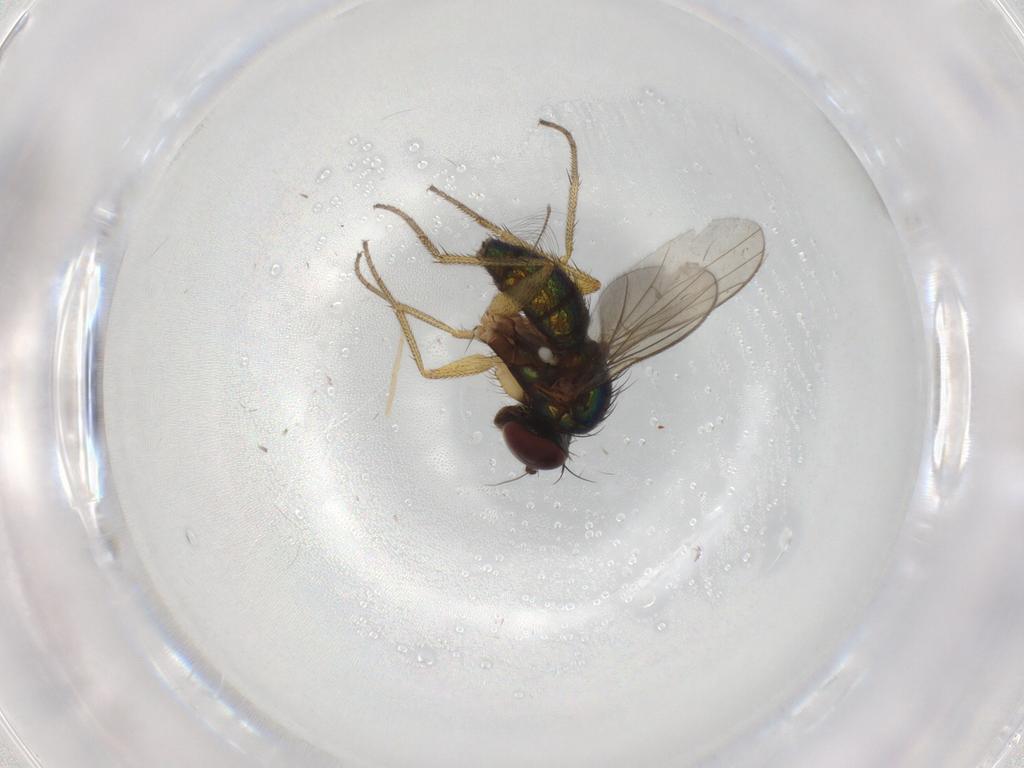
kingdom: Animalia
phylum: Arthropoda
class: Insecta
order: Diptera
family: Dolichopodidae
